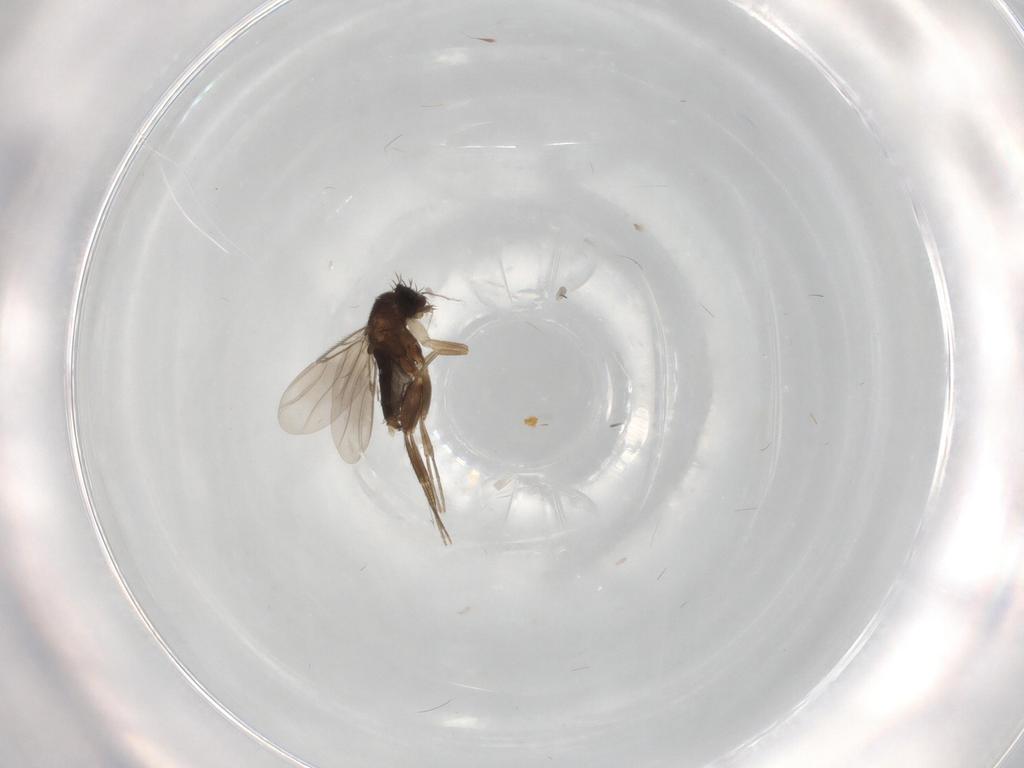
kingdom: Animalia
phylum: Arthropoda
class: Insecta
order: Diptera
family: Phoridae
